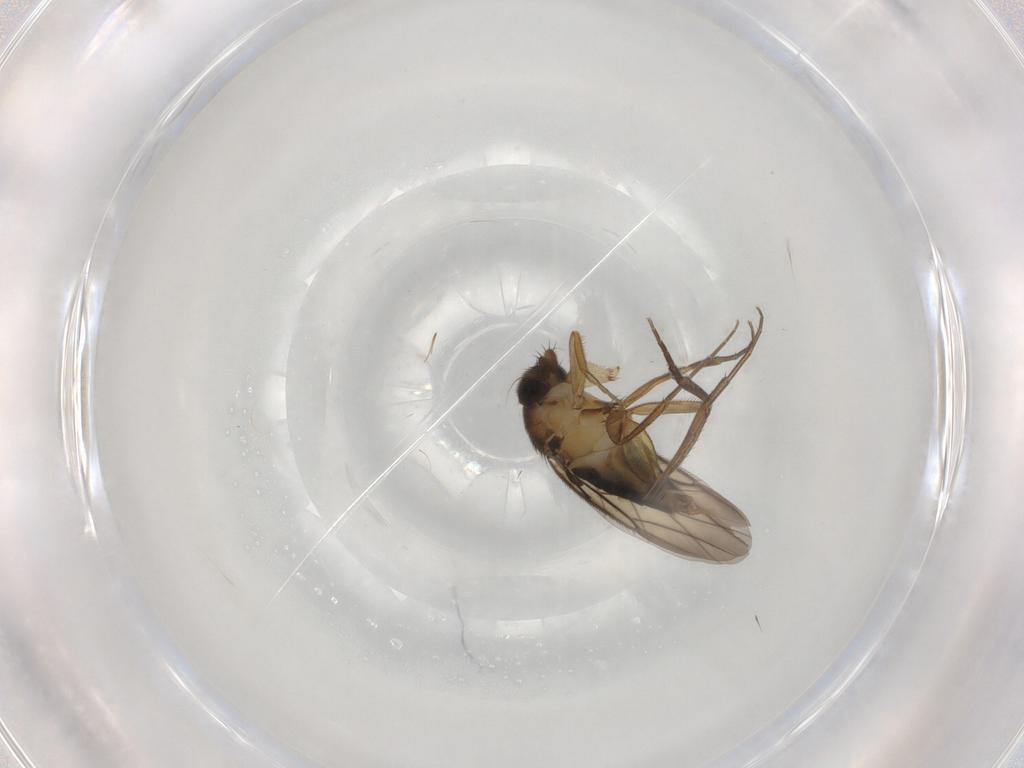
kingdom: Animalia
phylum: Arthropoda
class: Insecta
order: Diptera
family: Phoridae
